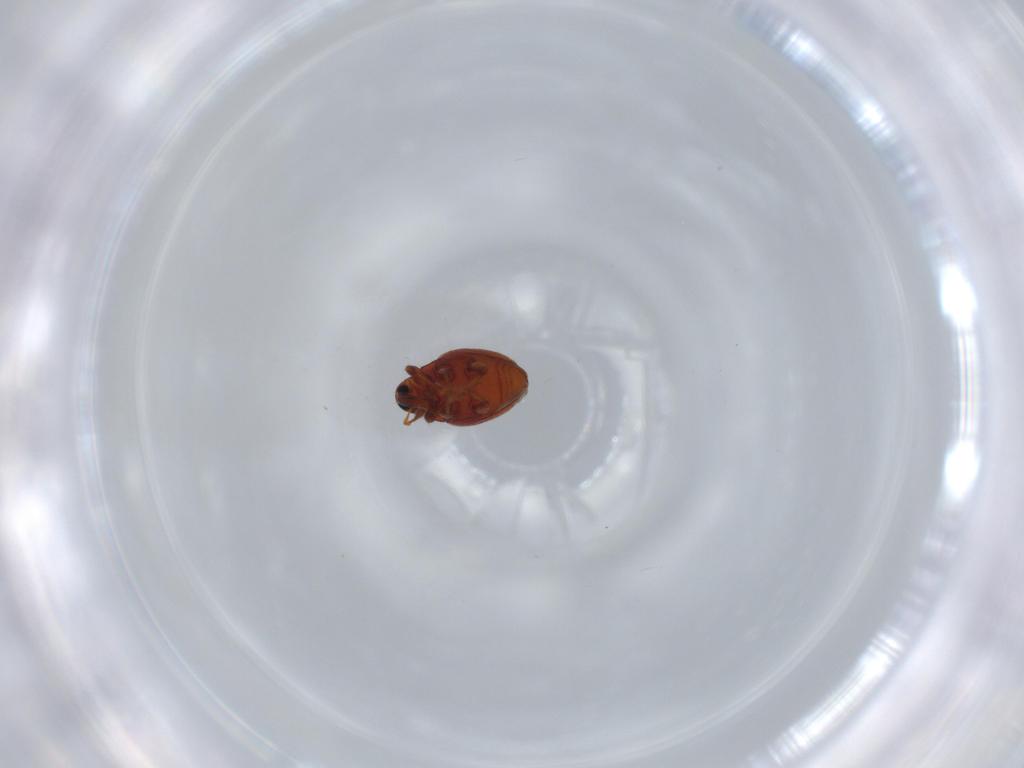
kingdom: Animalia
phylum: Arthropoda
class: Insecta
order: Coleoptera
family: Curculionidae
